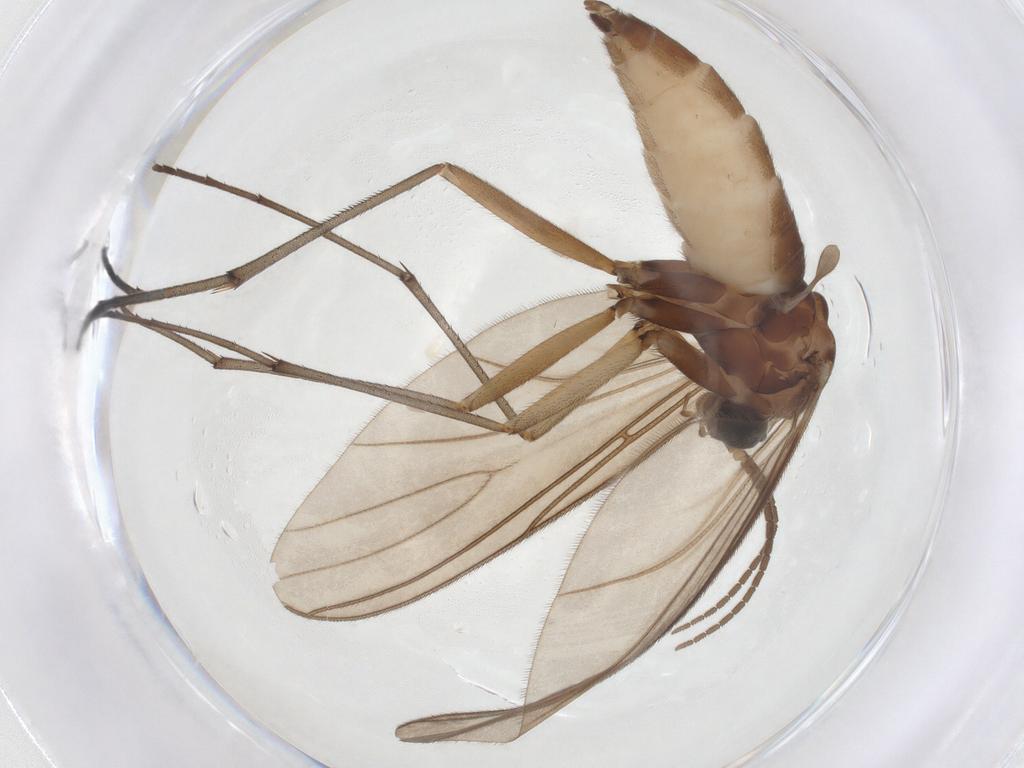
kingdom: Animalia
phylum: Arthropoda
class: Insecta
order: Diptera
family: Sciaridae
